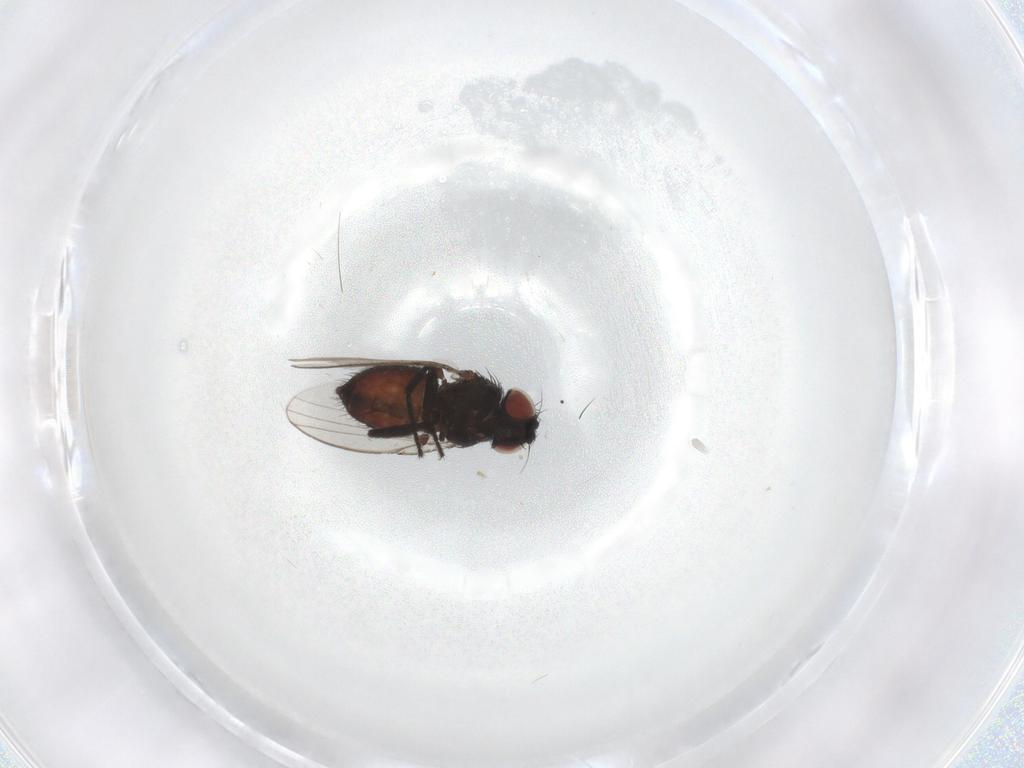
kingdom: Animalia
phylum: Arthropoda
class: Insecta
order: Diptera
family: Milichiidae
